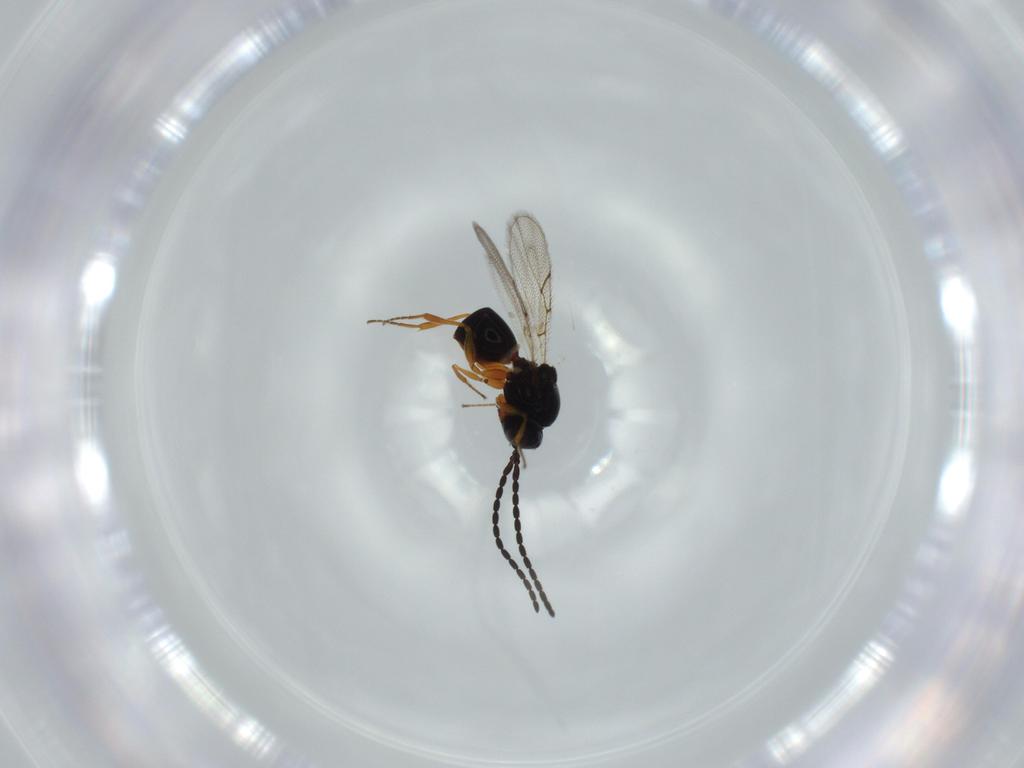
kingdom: Animalia
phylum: Arthropoda
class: Insecta
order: Hymenoptera
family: Figitidae
